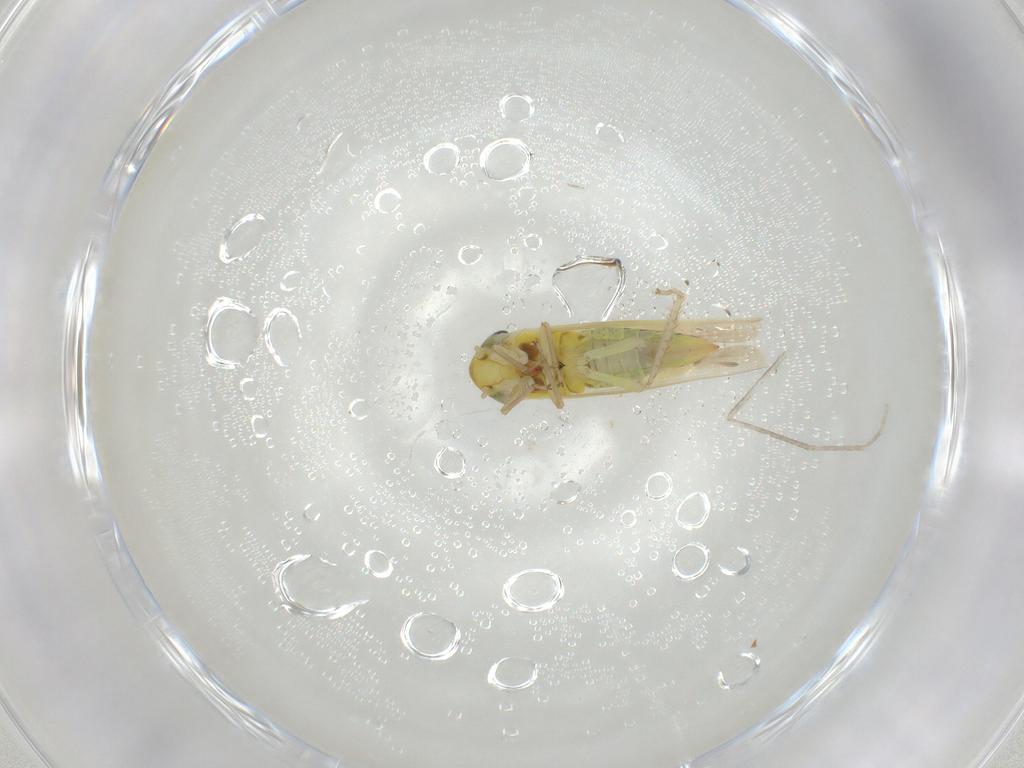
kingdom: Animalia
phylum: Arthropoda
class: Insecta
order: Hemiptera
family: Cicadellidae
